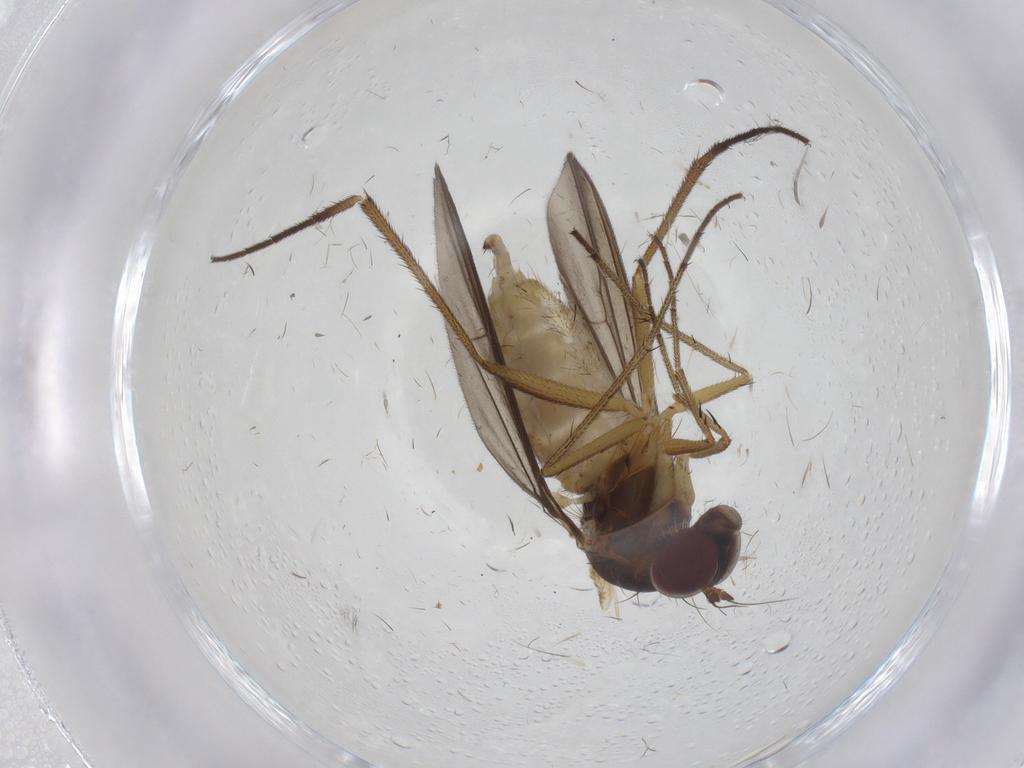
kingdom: Animalia
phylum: Arthropoda
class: Insecta
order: Diptera
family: Dolichopodidae
